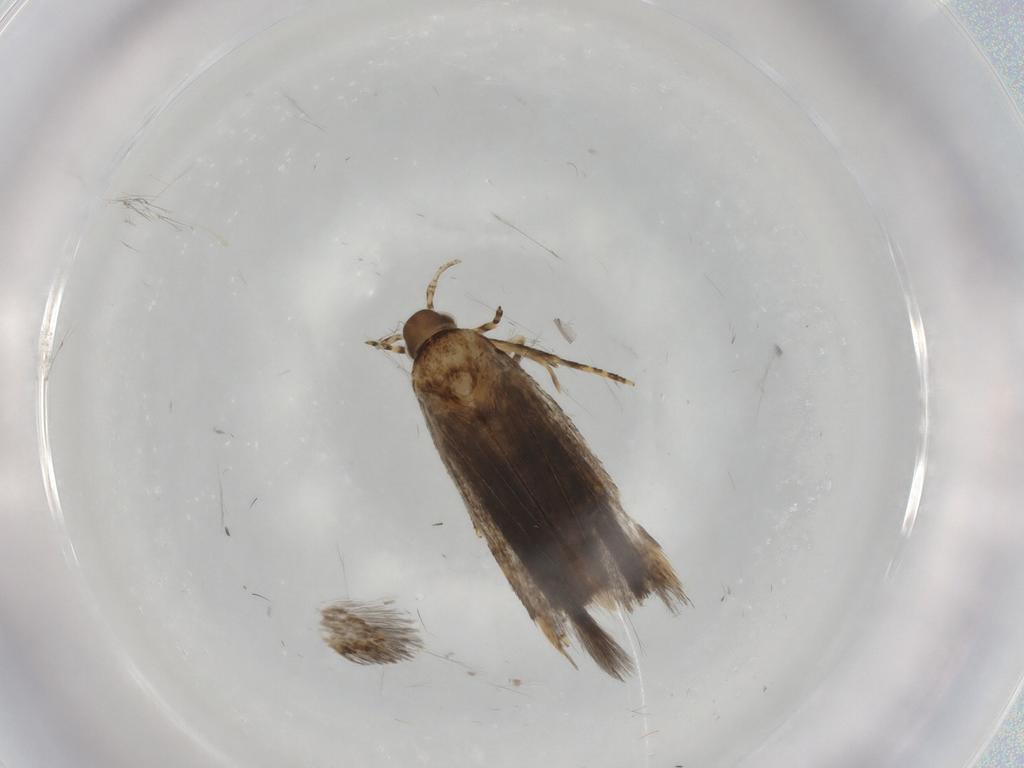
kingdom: Animalia
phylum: Arthropoda
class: Insecta
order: Lepidoptera
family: Oecophoridae
